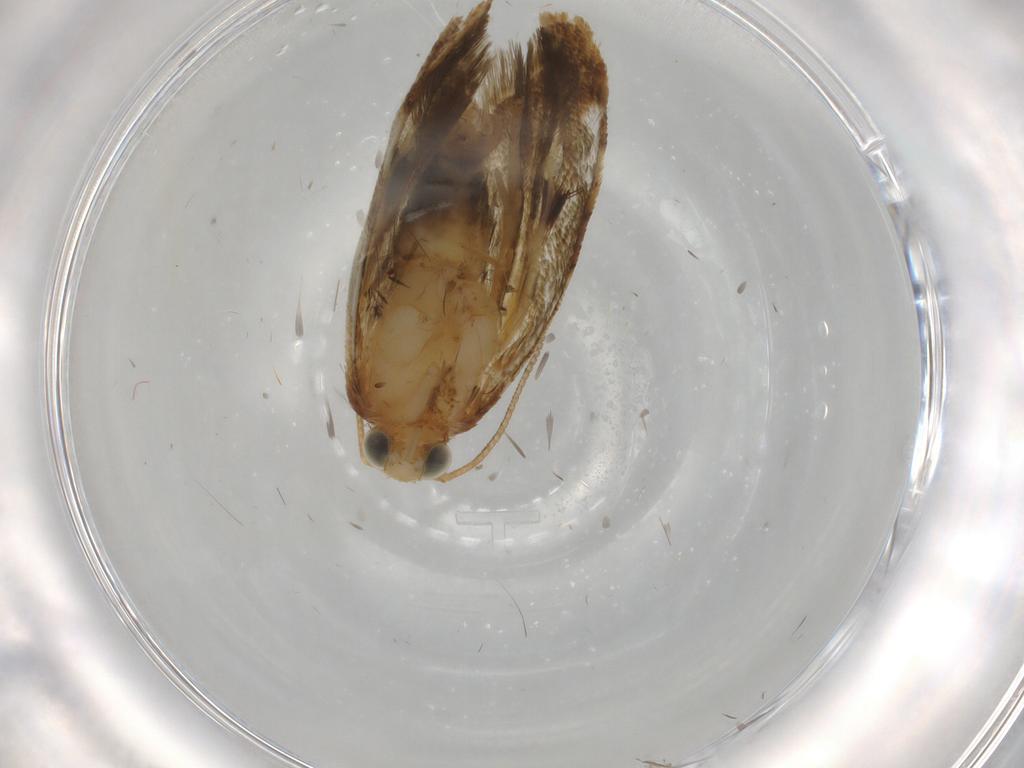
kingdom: Animalia
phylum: Arthropoda
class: Insecta
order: Lepidoptera
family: Tortricidae
